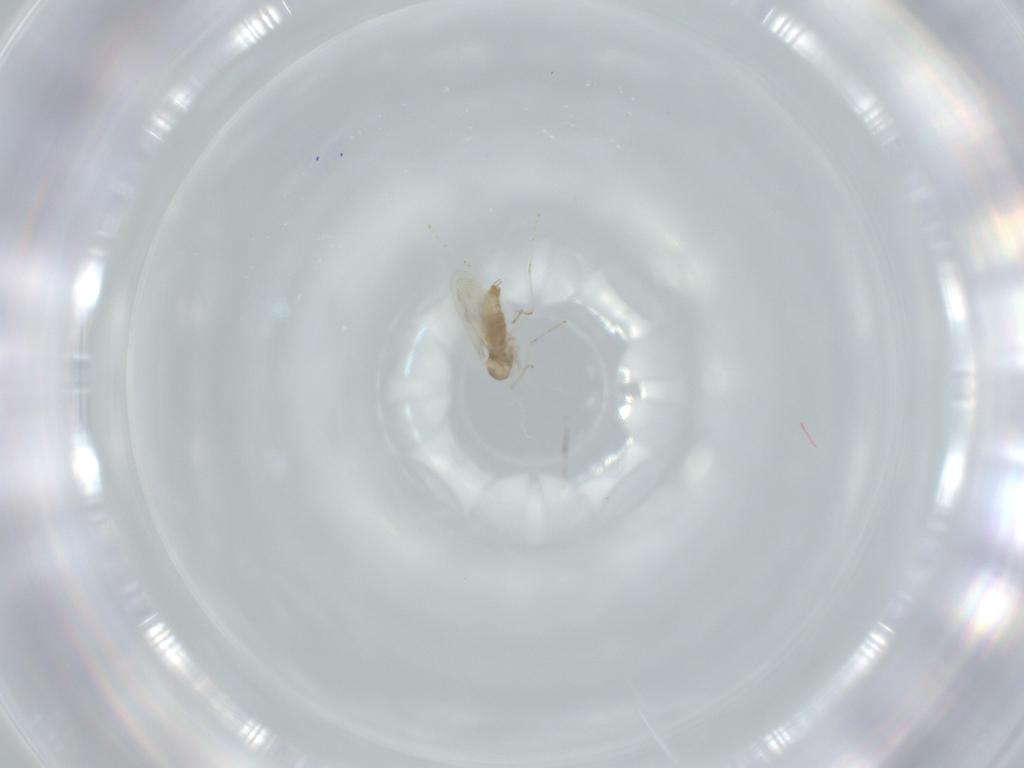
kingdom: Animalia
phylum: Arthropoda
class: Insecta
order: Diptera
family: Cecidomyiidae
